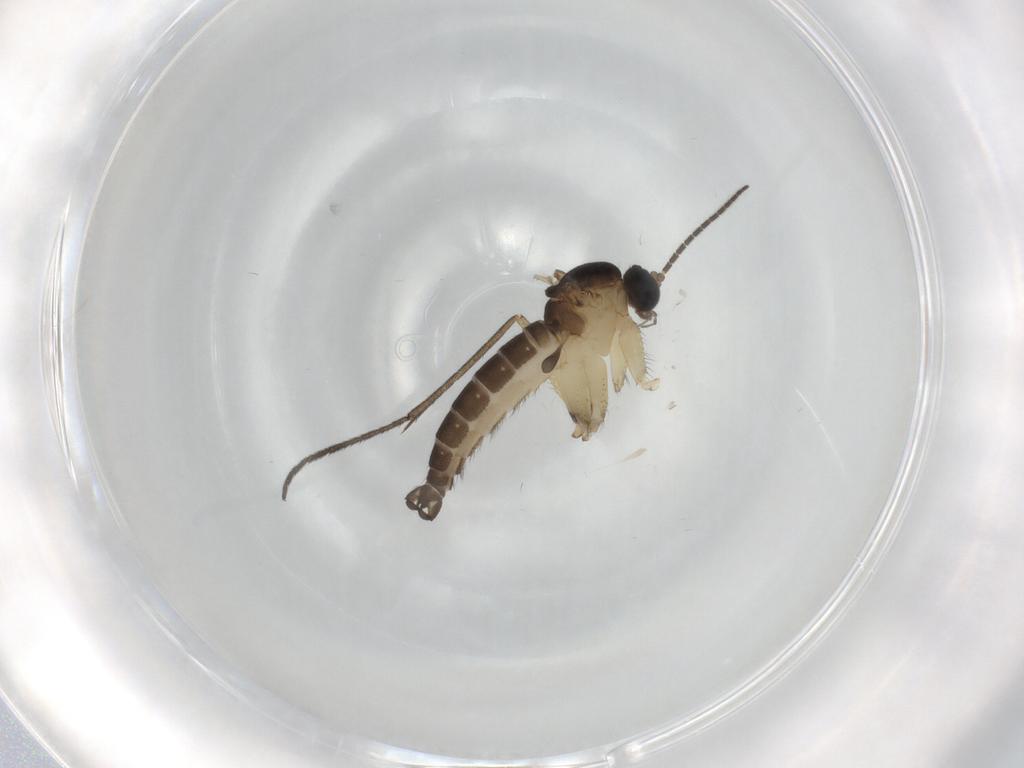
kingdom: Animalia
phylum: Arthropoda
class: Insecta
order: Diptera
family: Sciaridae
